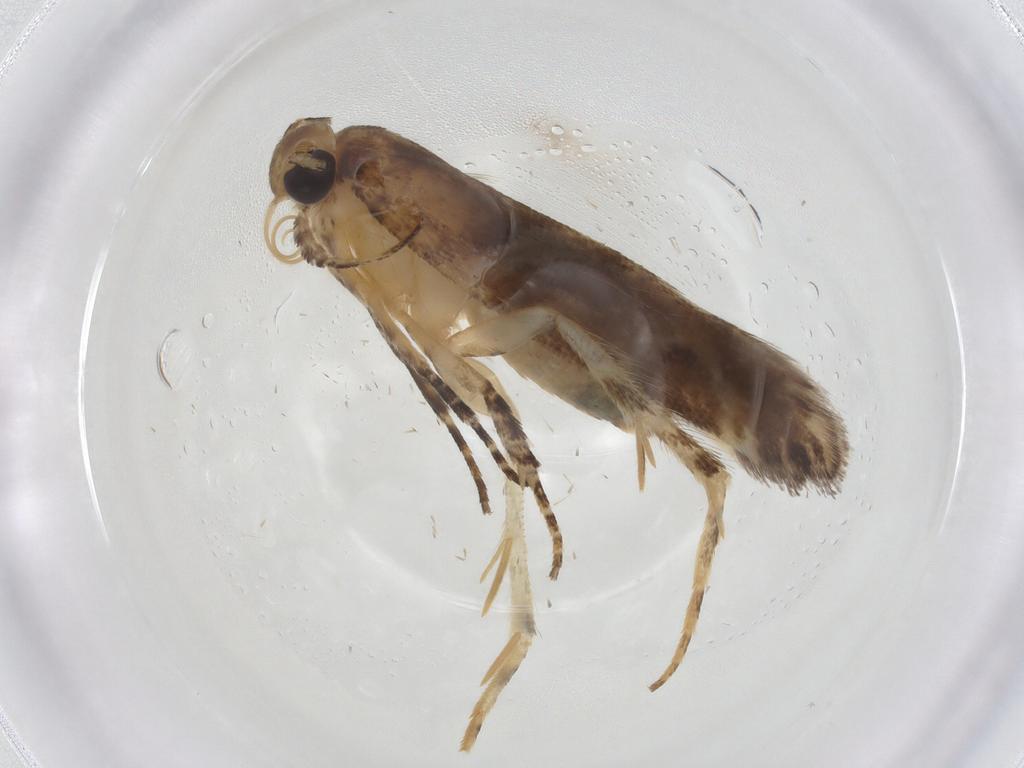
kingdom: Animalia
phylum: Arthropoda
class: Insecta
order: Lepidoptera
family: Gelechiidae
